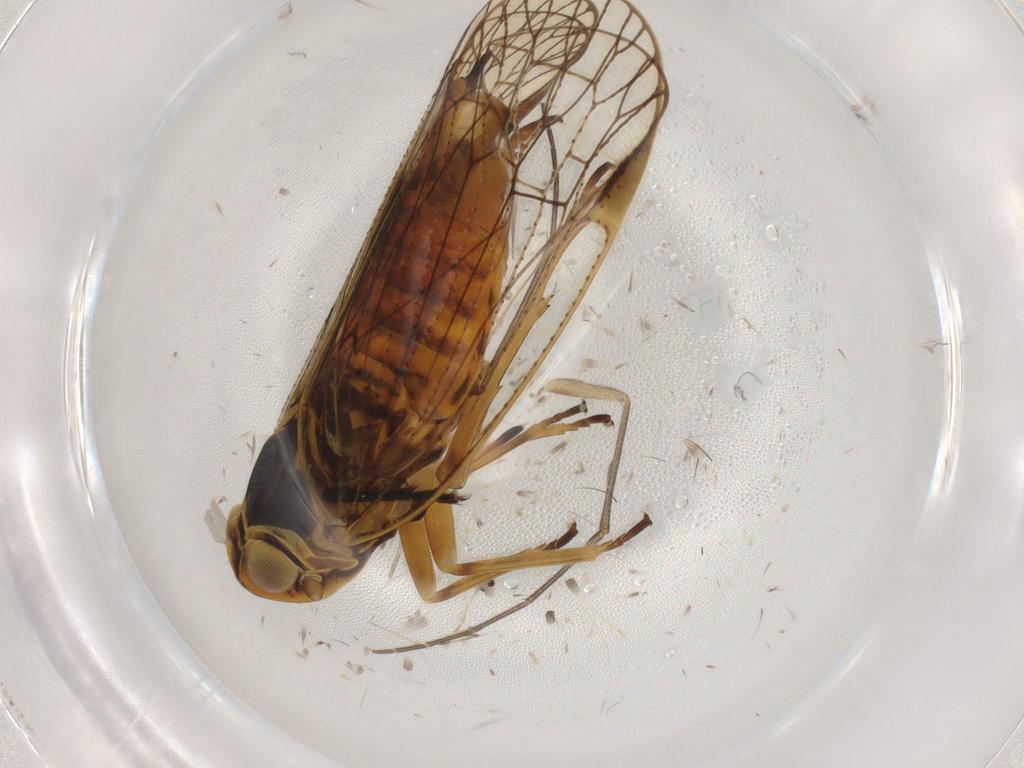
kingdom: Animalia
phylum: Arthropoda
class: Insecta
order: Hemiptera
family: Cixiidae
